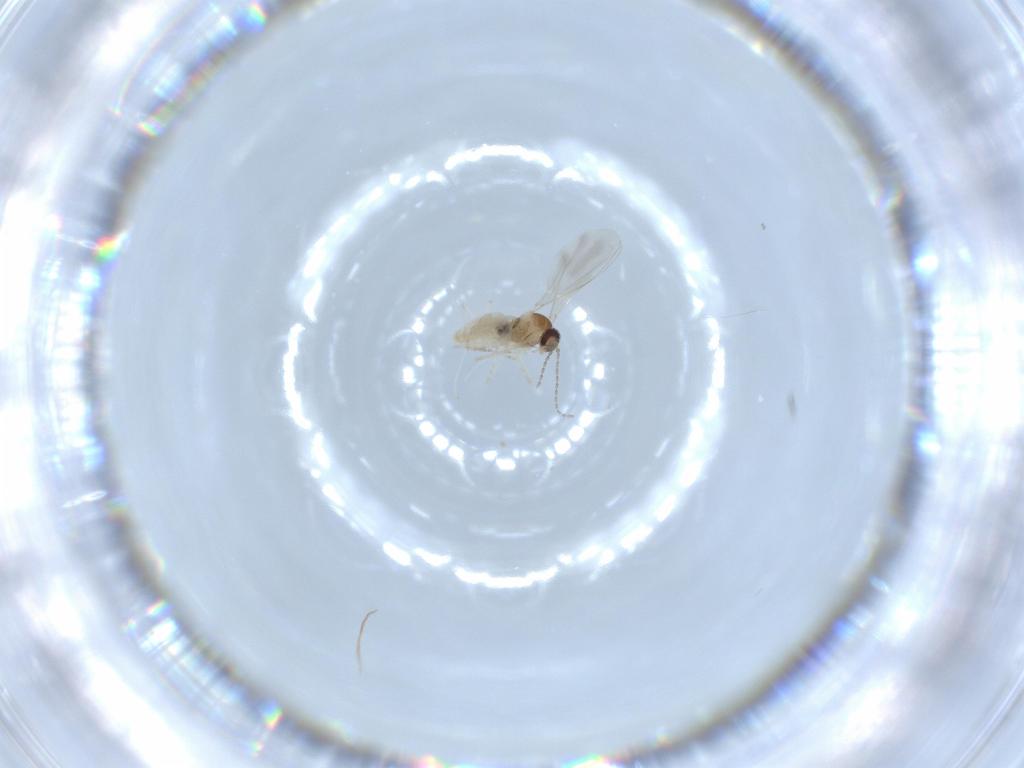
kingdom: Animalia
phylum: Arthropoda
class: Insecta
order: Diptera
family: Cecidomyiidae
